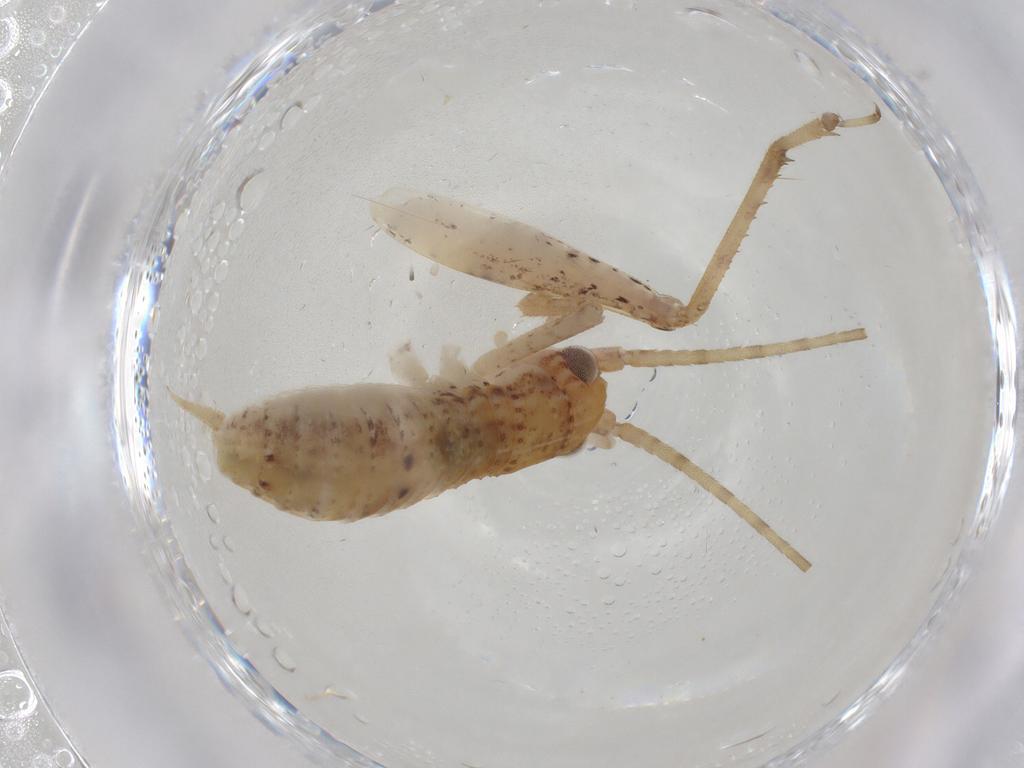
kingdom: Animalia
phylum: Arthropoda
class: Insecta
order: Orthoptera
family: Gryllidae
